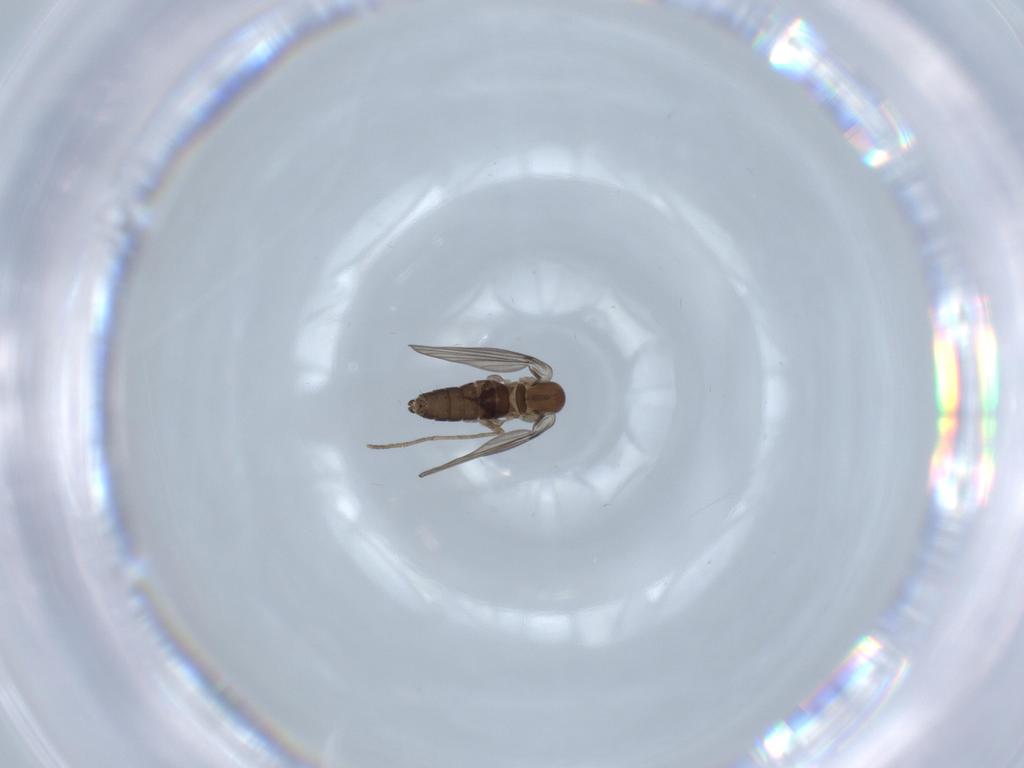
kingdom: Animalia
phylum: Arthropoda
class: Insecta
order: Diptera
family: Psychodidae
